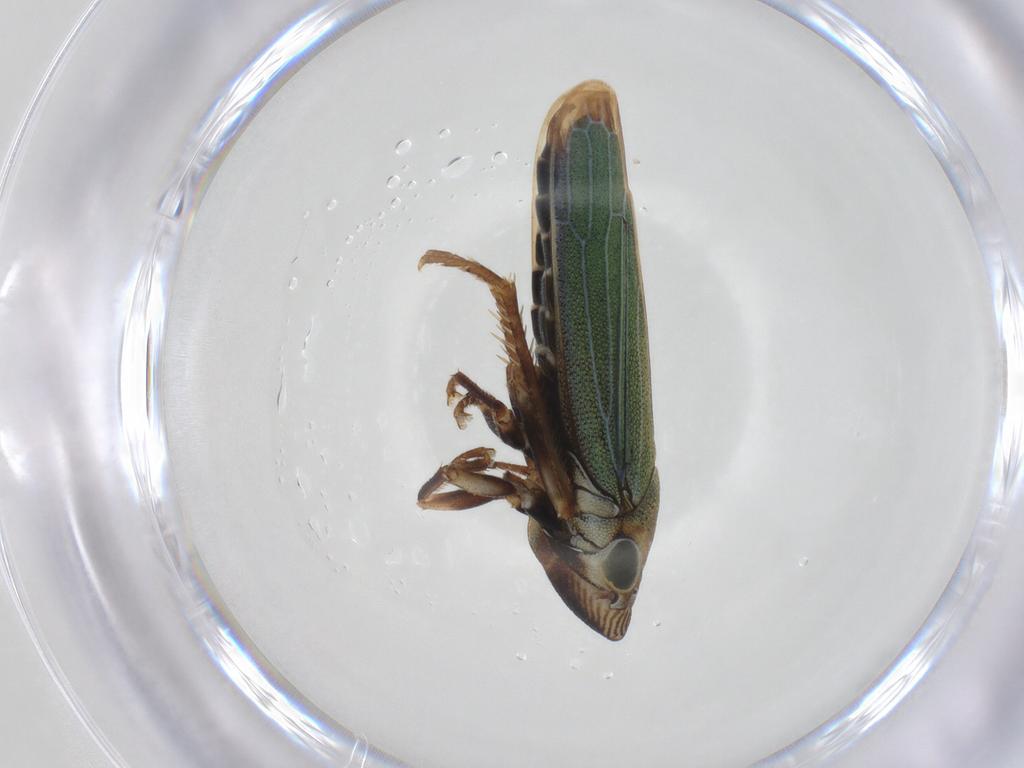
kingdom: Animalia
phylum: Arthropoda
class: Insecta
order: Hemiptera
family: Cicadellidae
